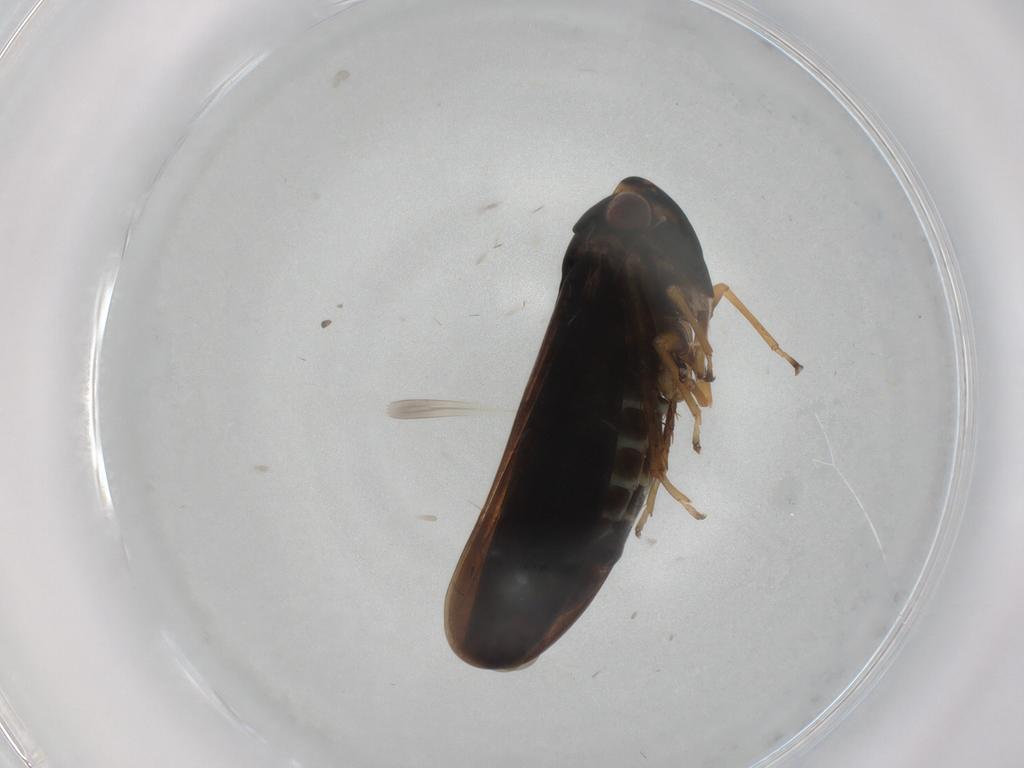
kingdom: Animalia
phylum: Arthropoda
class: Insecta
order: Hemiptera
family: Cicadellidae
